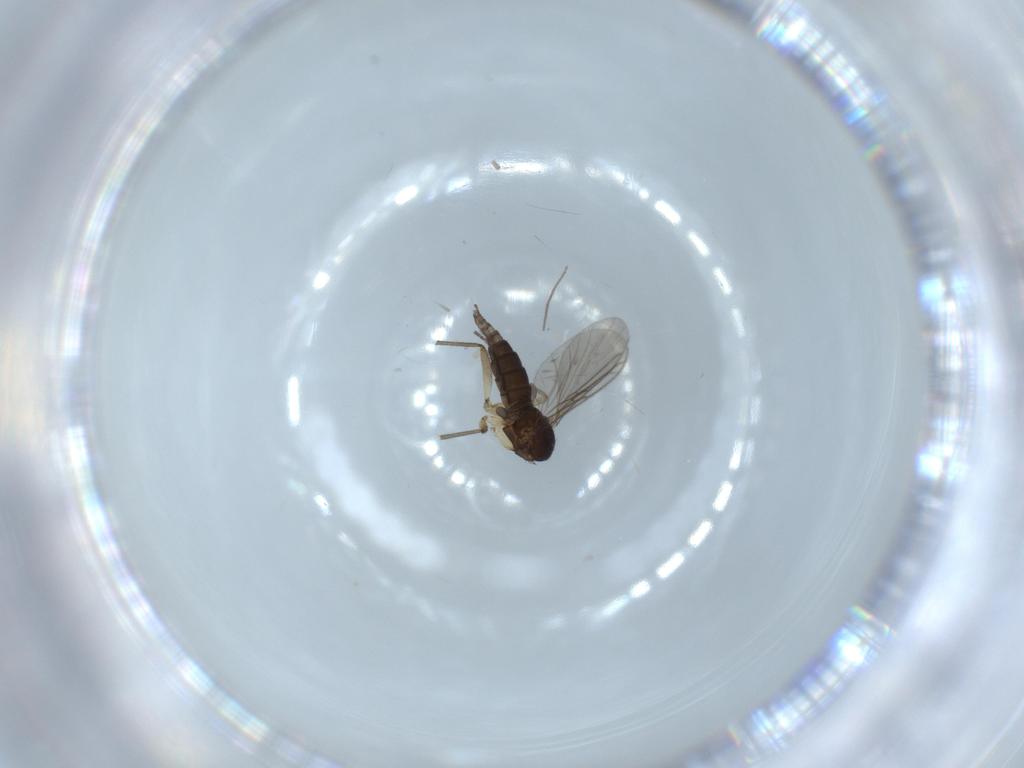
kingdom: Animalia
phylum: Arthropoda
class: Insecta
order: Diptera
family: Sciaridae
